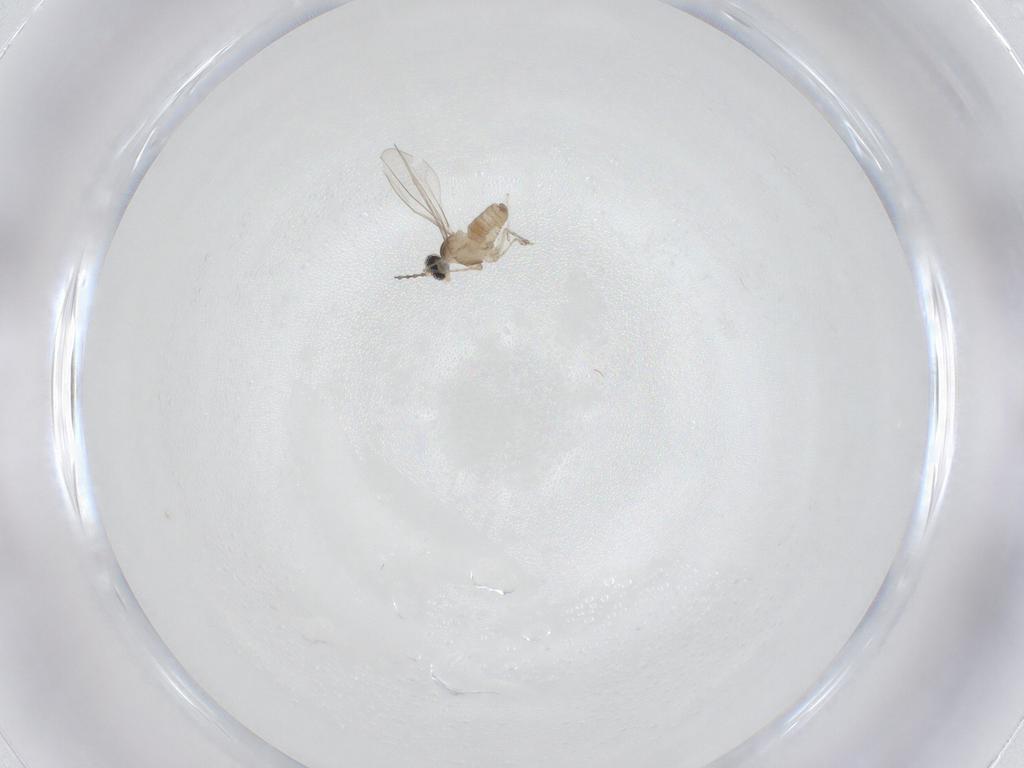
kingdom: Animalia
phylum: Arthropoda
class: Insecta
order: Diptera
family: Cecidomyiidae
